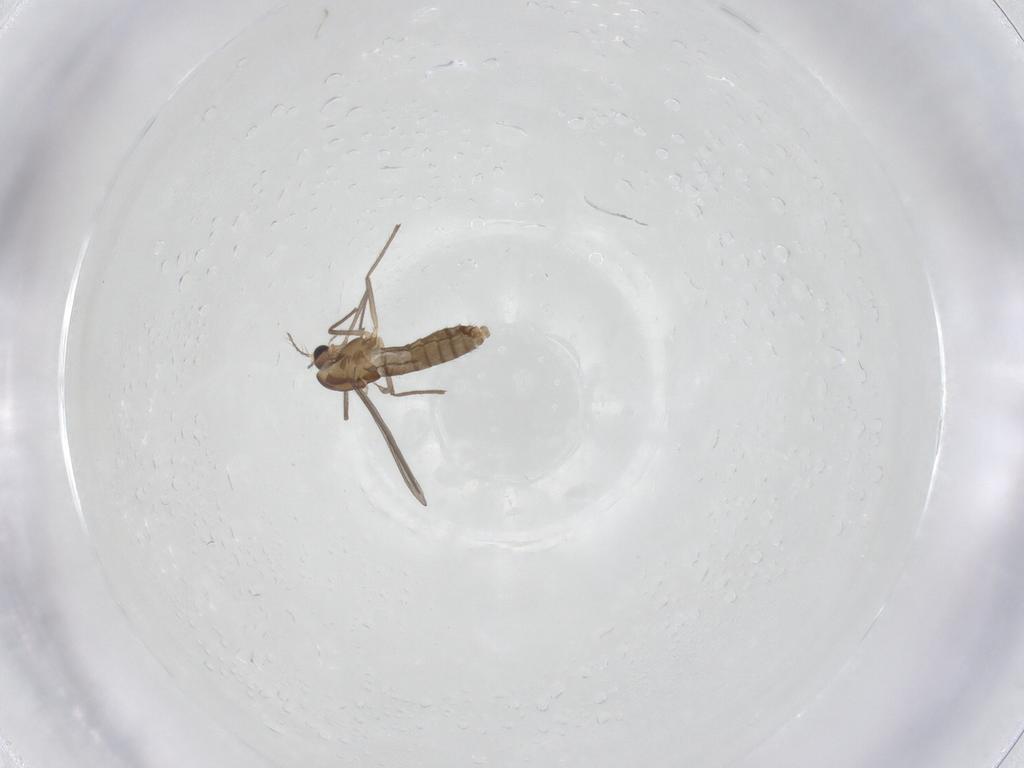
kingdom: Animalia
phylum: Arthropoda
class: Insecta
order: Diptera
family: Chironomidae
